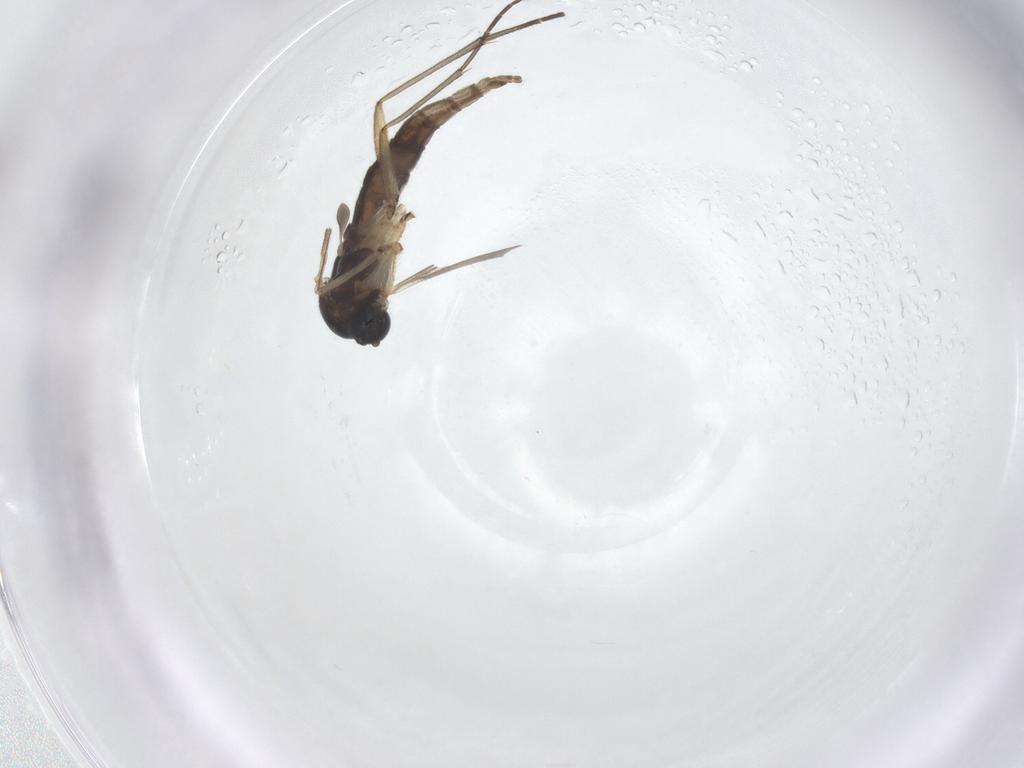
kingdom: Animalia
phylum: Arthropoda
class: Insecta
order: Diptera
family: Sciaridae
